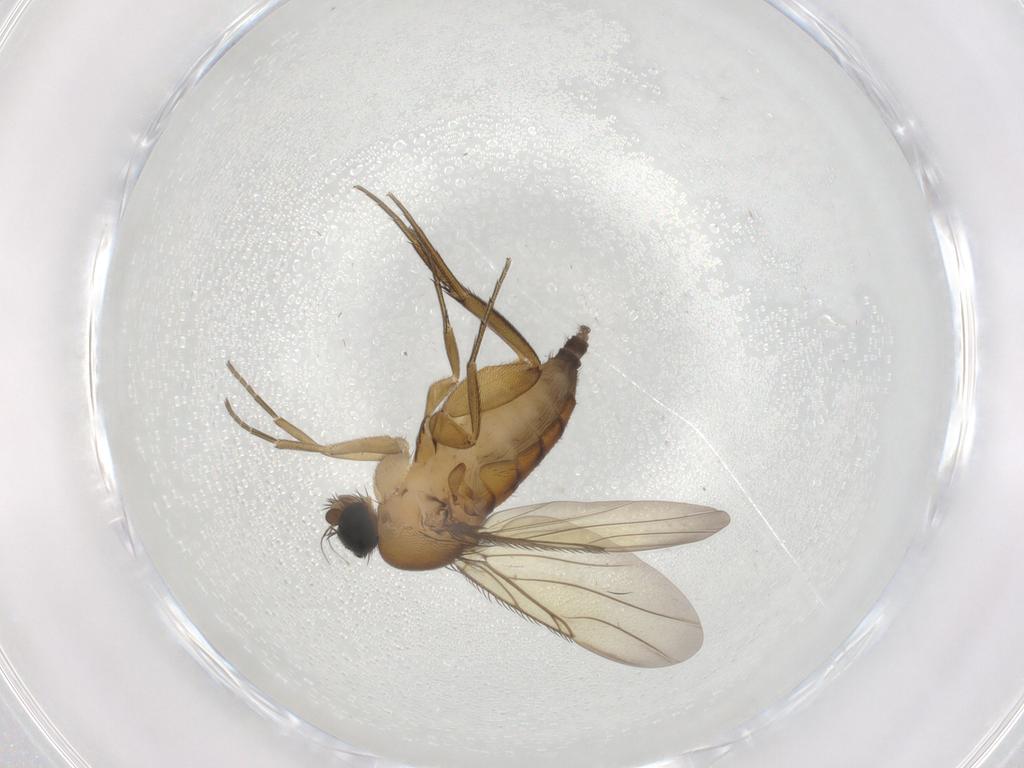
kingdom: Animalia
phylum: Arthropoda
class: Insecta
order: Diptera
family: Phoridae
